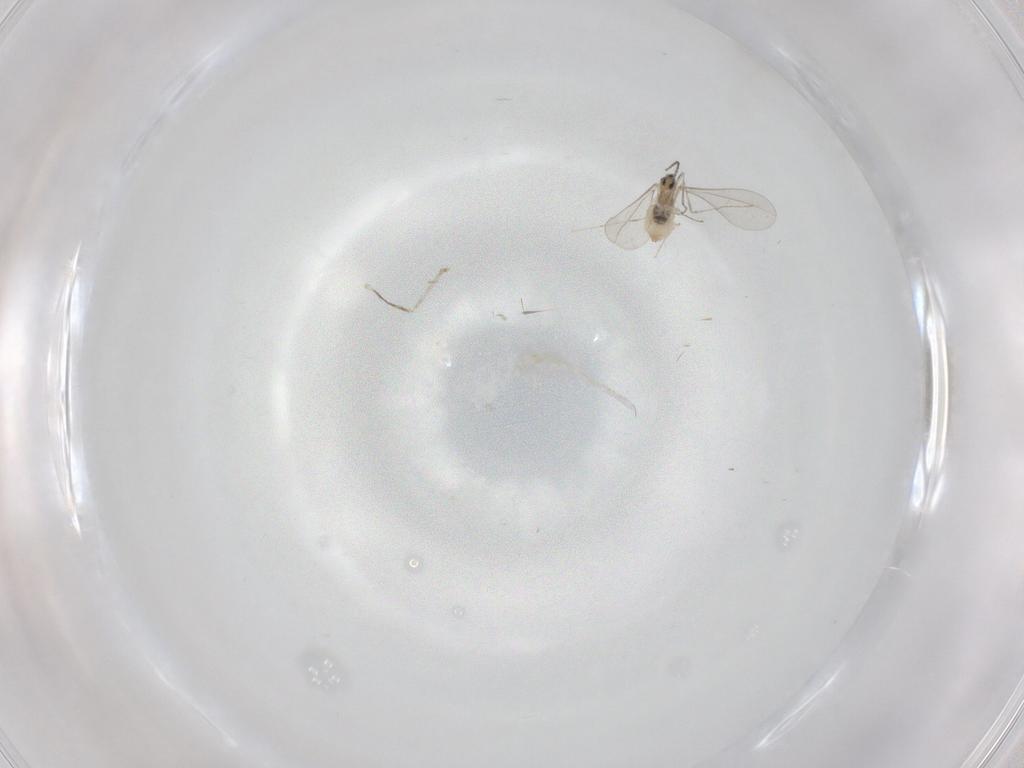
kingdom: Animalia
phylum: Arthropoda
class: Insecta
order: Diptera
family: Cecidomyiidae
